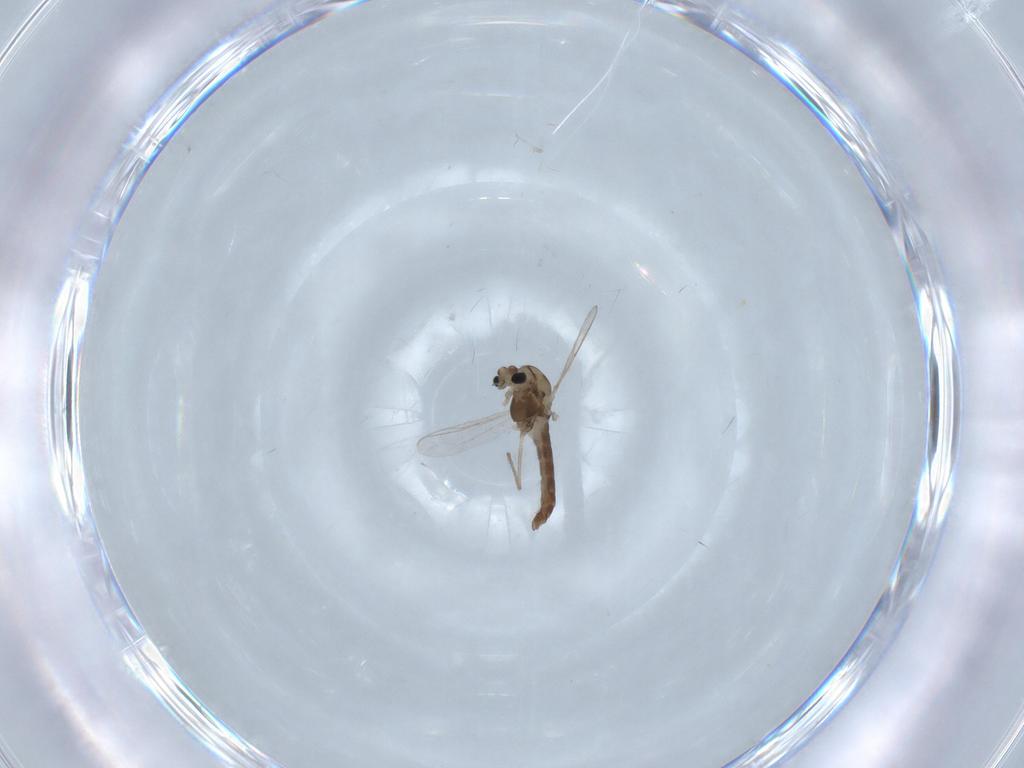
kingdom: Animalia
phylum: Arthropoda
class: Insecta
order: Diptera
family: Chironomidae
